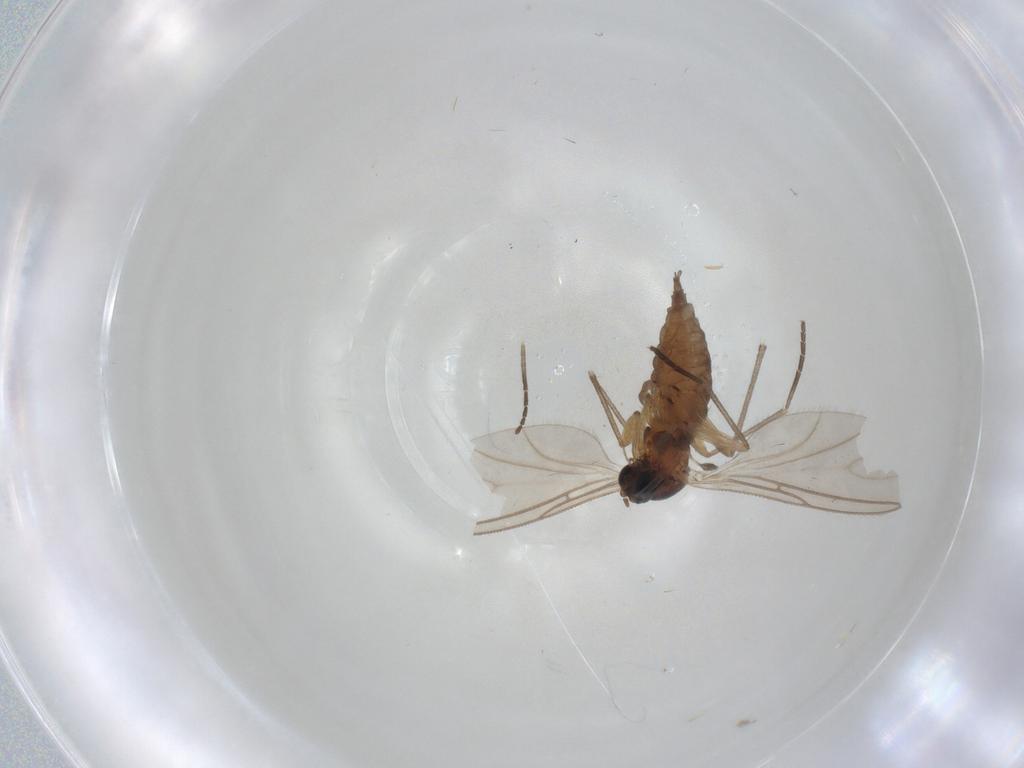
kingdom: Animalia
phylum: Arthropoda
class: Insecta
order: Diptera
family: Sciaridae
